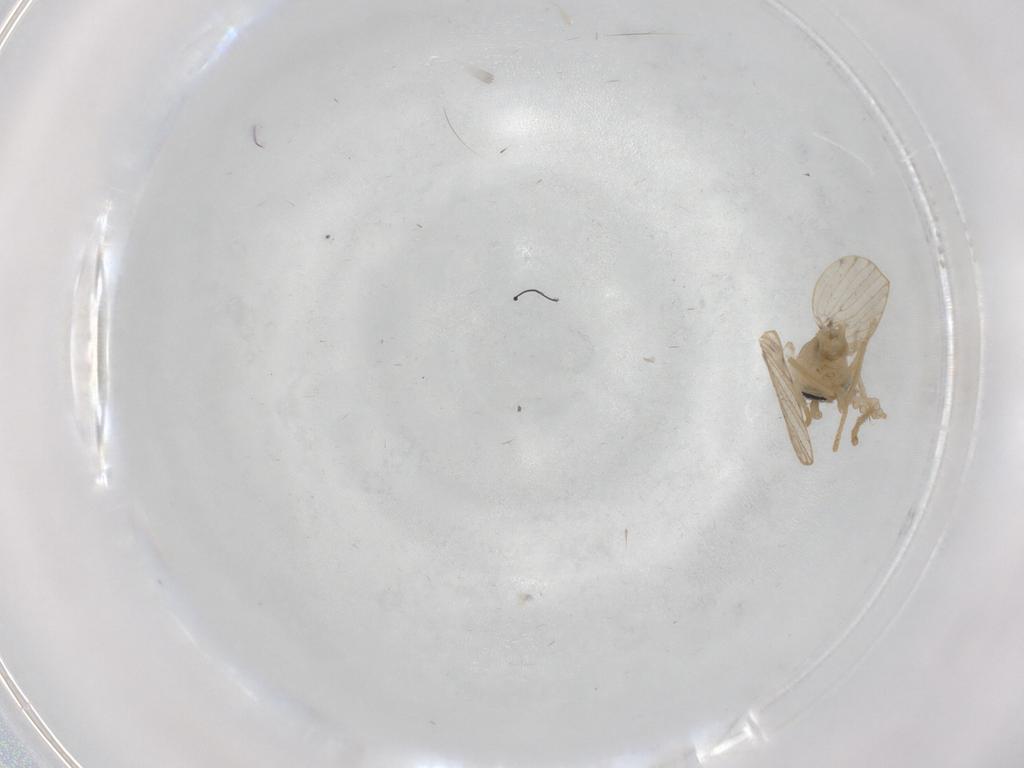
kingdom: Animalia
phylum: Arthropoda
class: Insecta
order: Diptera
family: Psychodidae
